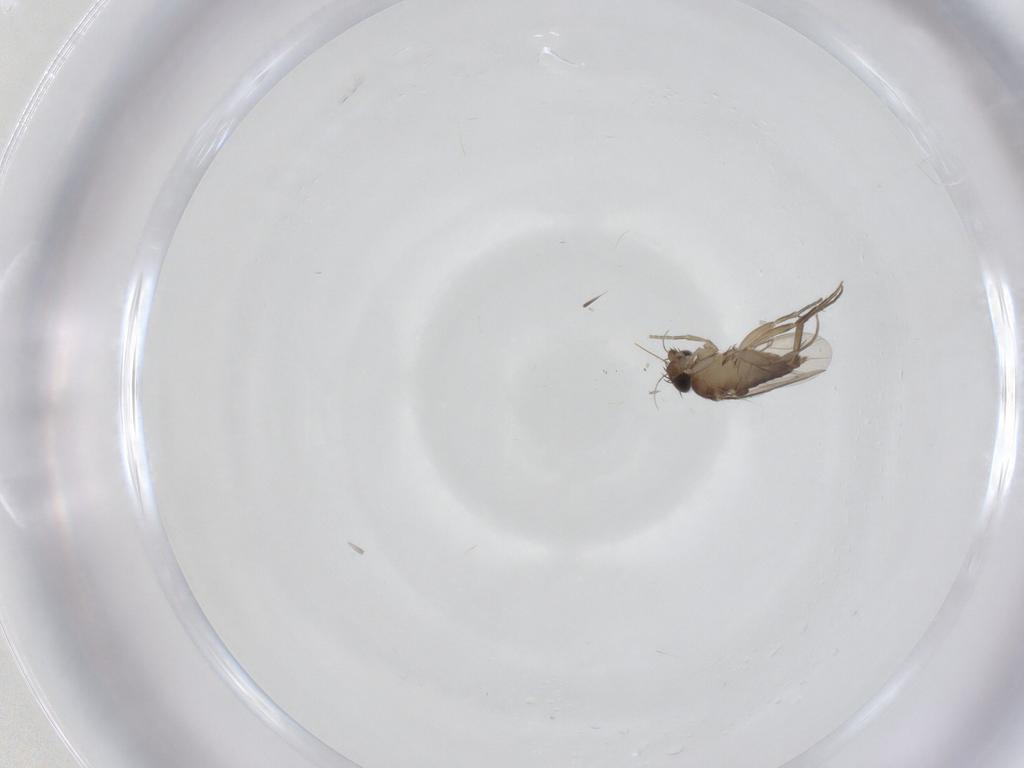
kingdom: Animalia
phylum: Arthropoda
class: Insecta
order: Diptera
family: Phoridae
